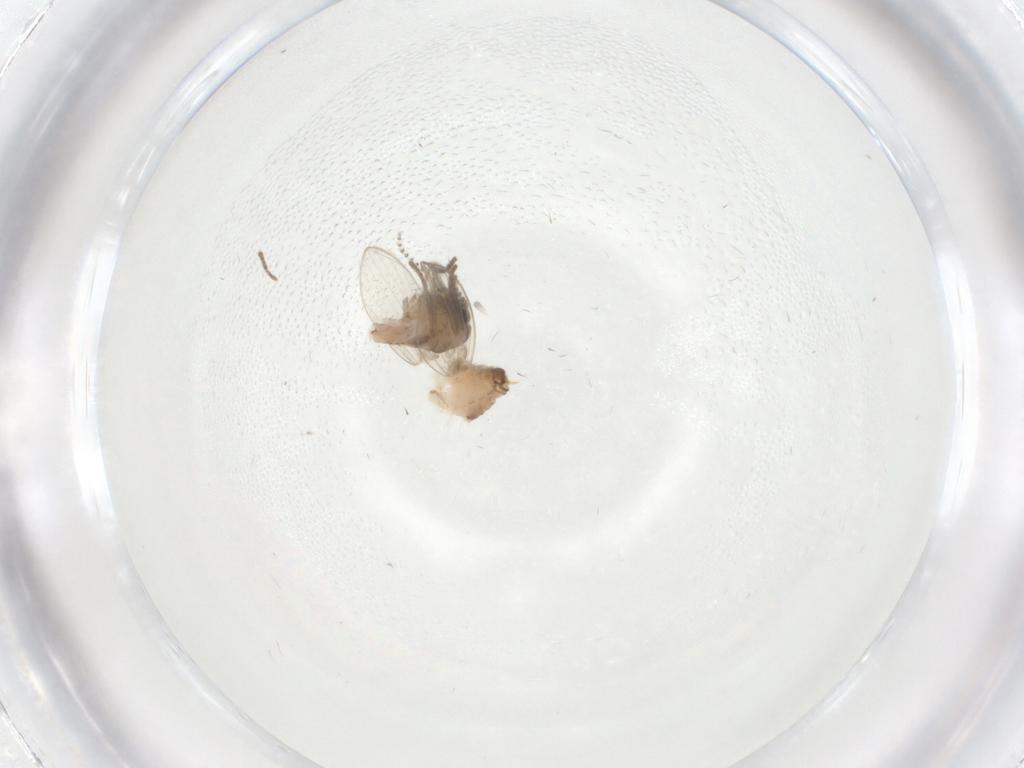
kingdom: Animalia
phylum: Arthropoda
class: Insecta
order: Diptera
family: Psychodidae
